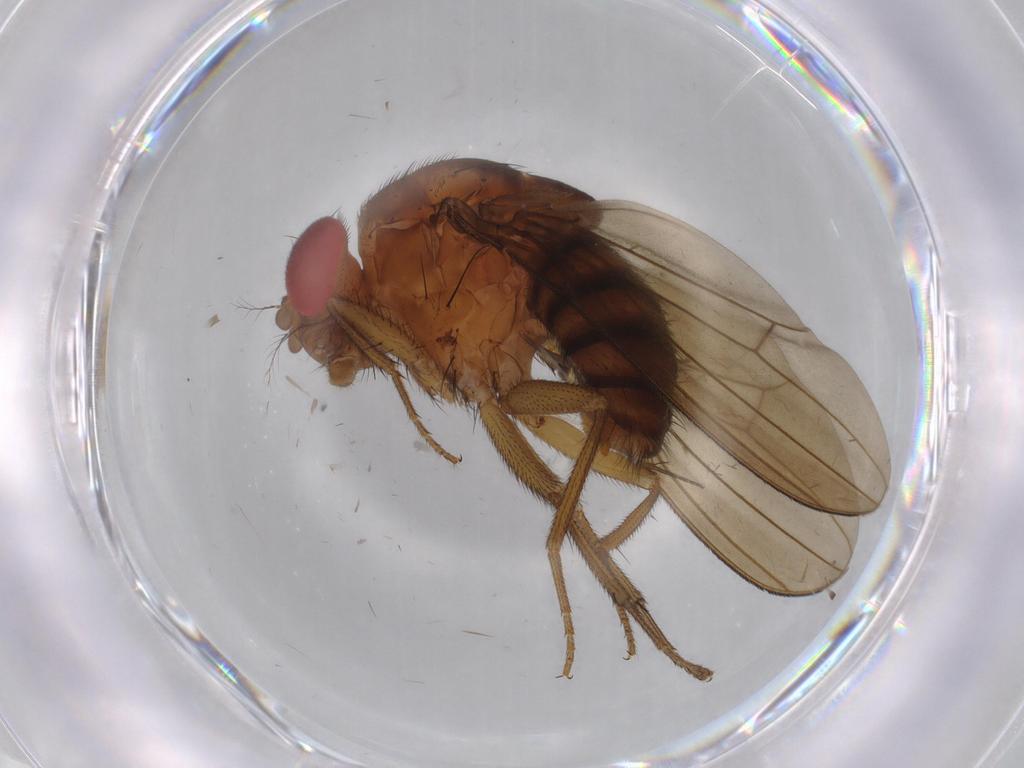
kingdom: Animalia
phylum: Arthropoda
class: Insecta
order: Diptera
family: Drosophilidae
